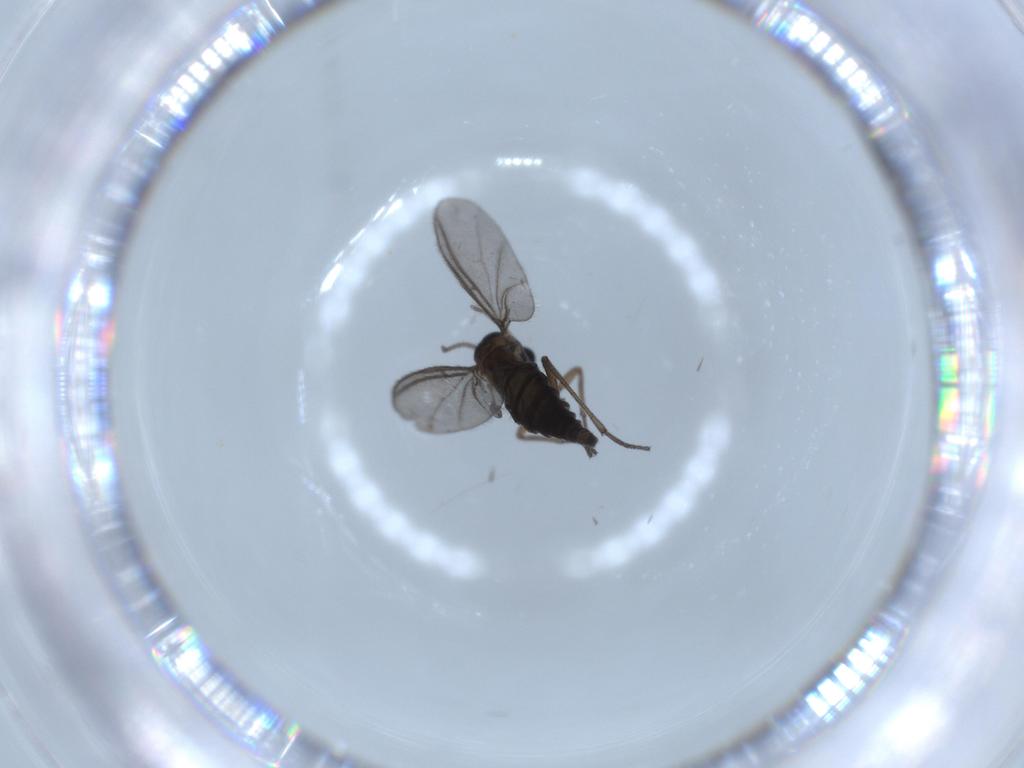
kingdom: Animalia
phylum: Arthropoda
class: Insecta
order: Diptera
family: Sciaridae
